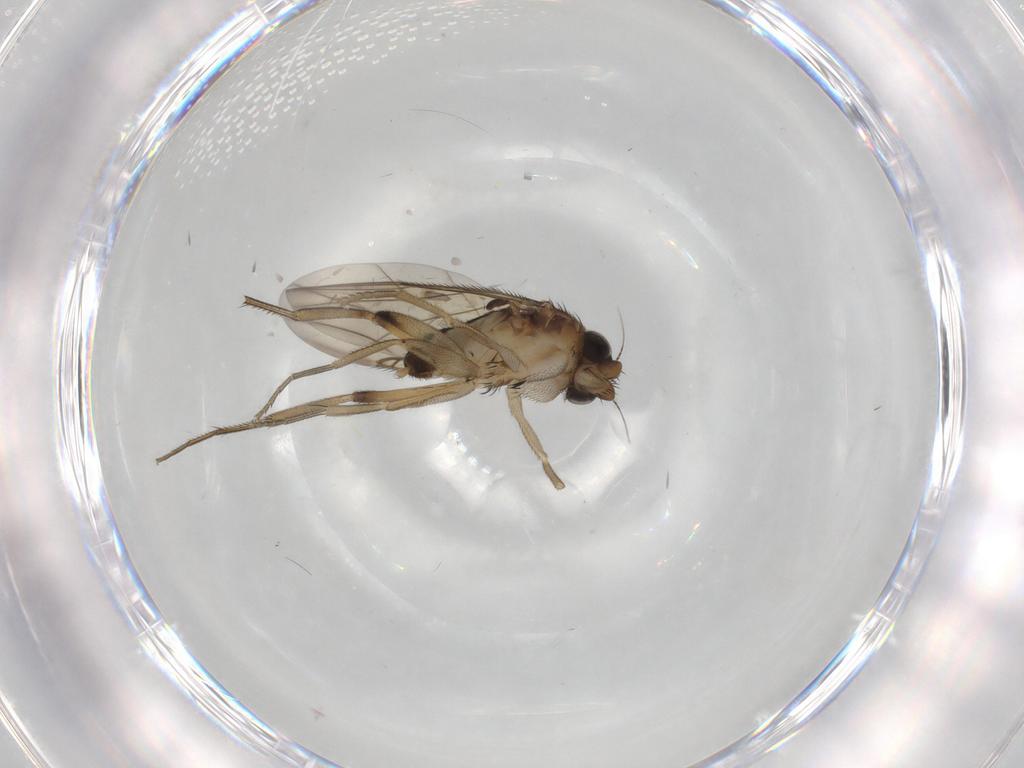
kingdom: Animalia
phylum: Arthropoda
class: Insecta
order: Diptera
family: Phoridae
